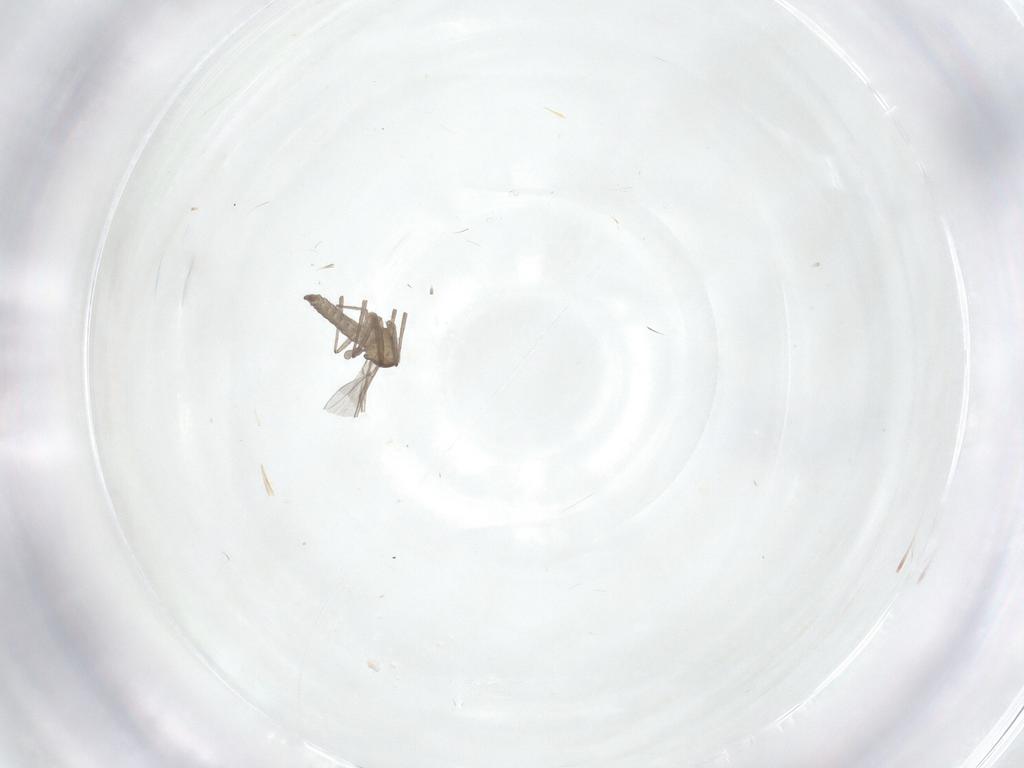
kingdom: Animalia
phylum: Arthropoda
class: Insecta
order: Diptera
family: Cecidomyiidae
